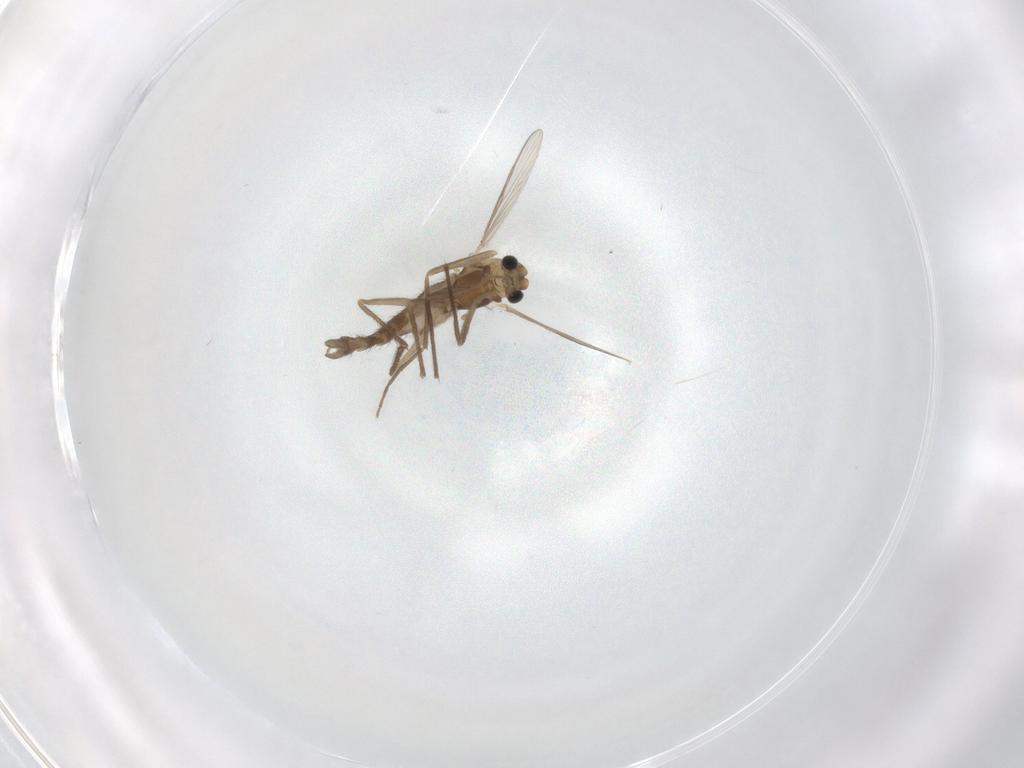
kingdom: Animalia
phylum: Arthropoda
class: Insecta
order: Diptera
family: Chironomidae
